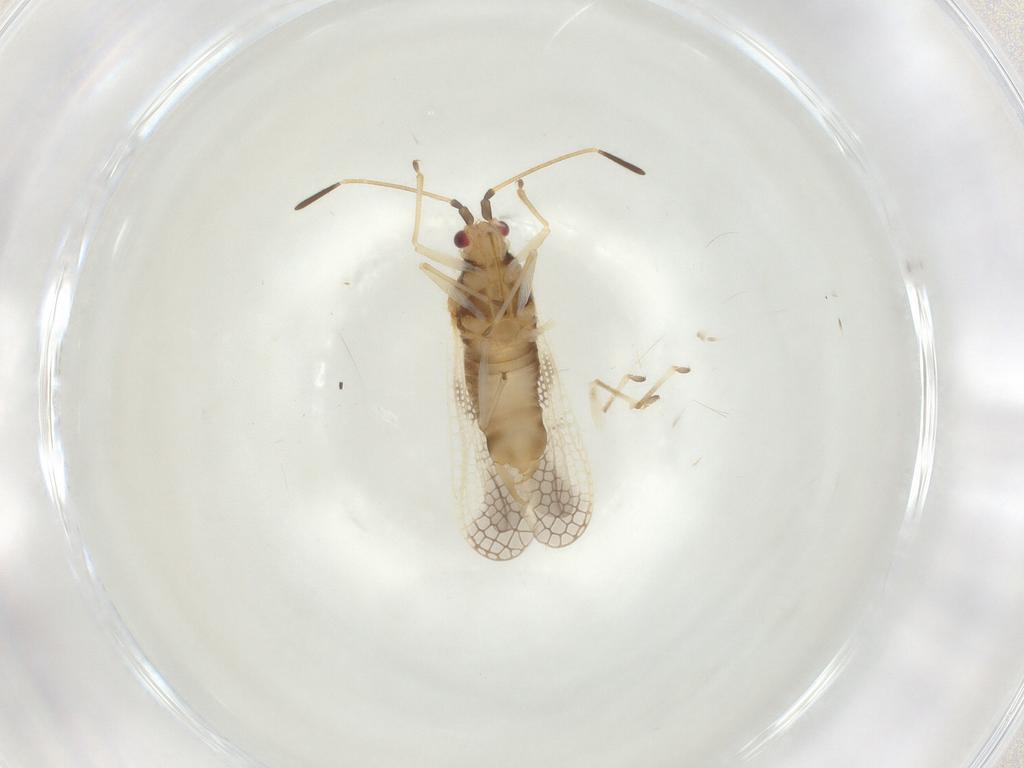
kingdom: Animalia
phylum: Arthropoda
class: Insecta
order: Hemiptera
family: Tingidae
